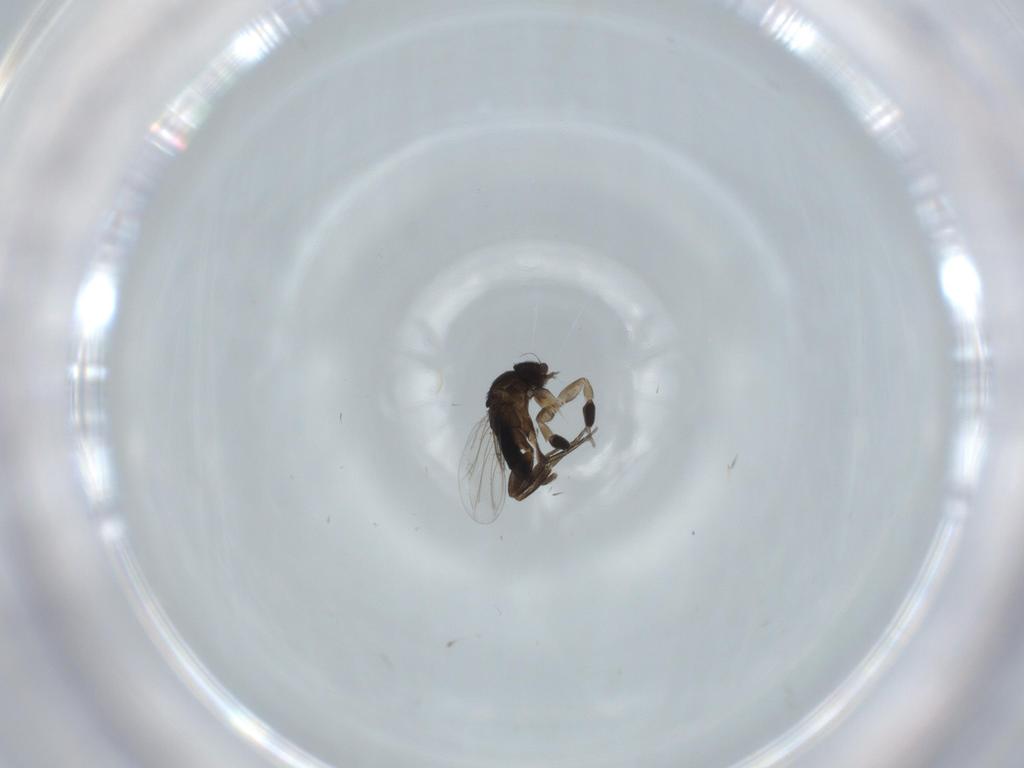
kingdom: Animalia
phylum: Arthropoda
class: Insecta
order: Diptera
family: Phoridae
